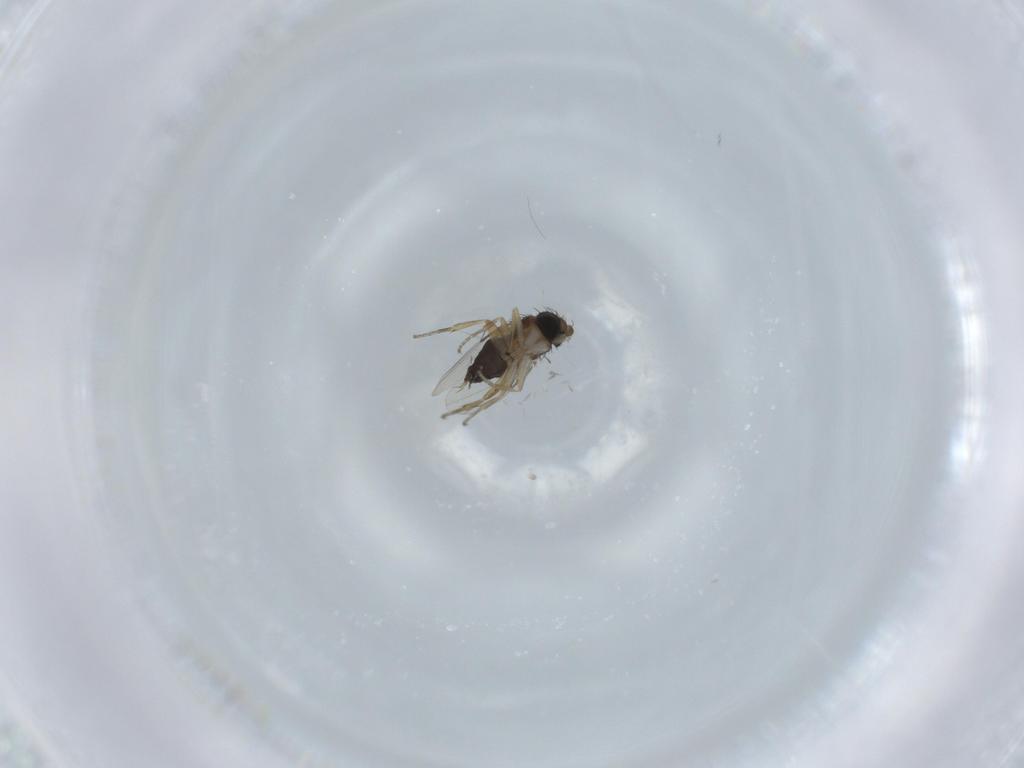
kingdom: Animalia
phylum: Arthropoda
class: Insecta
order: Diptera
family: Phoridae
